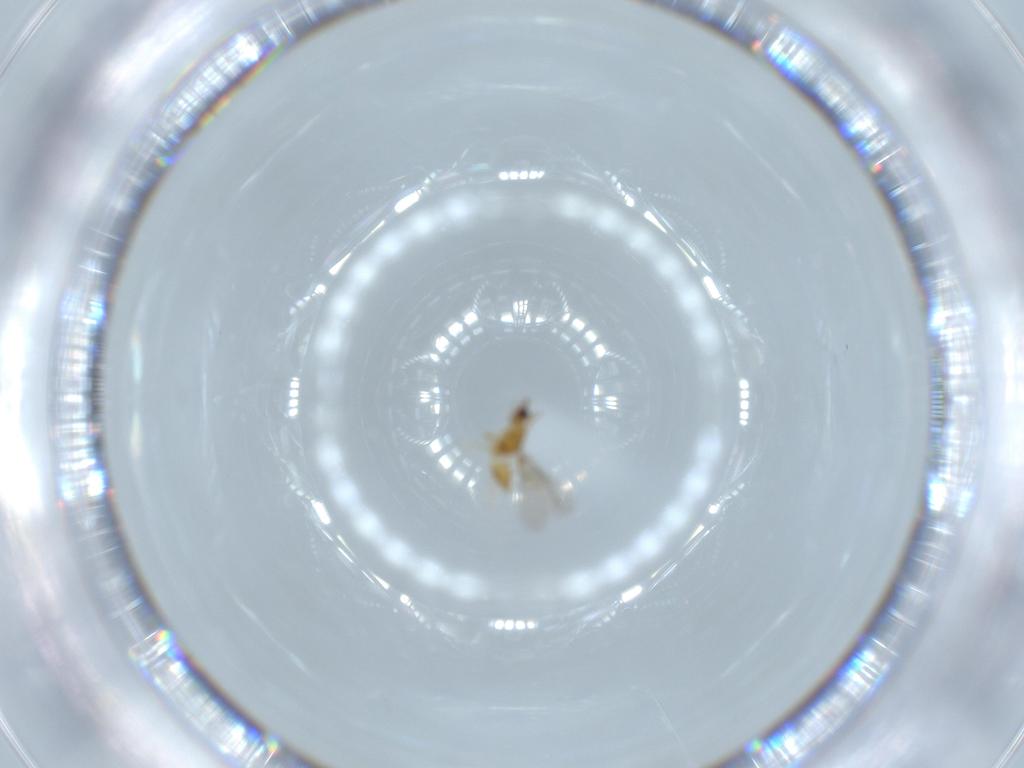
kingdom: Animalia
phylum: Arthropoda
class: Insecta
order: Hymenoptera
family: Mymaridae
